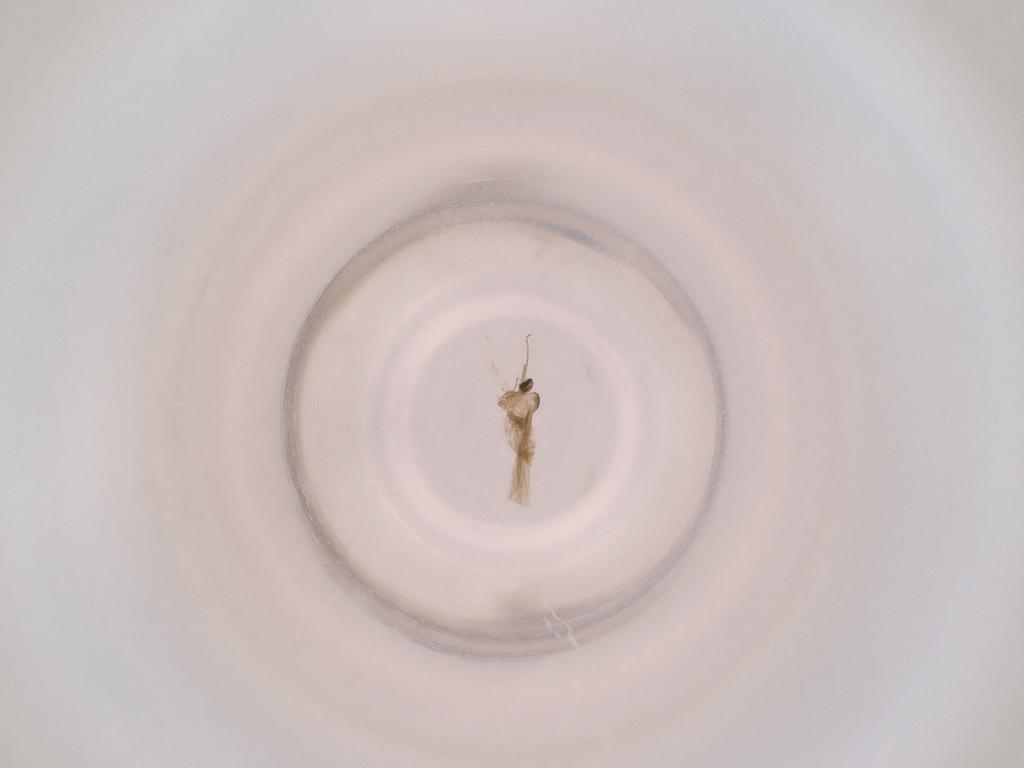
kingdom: Animalia
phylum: Arthropoda
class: Insecta
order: Diptera
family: Cecidomyiidae
